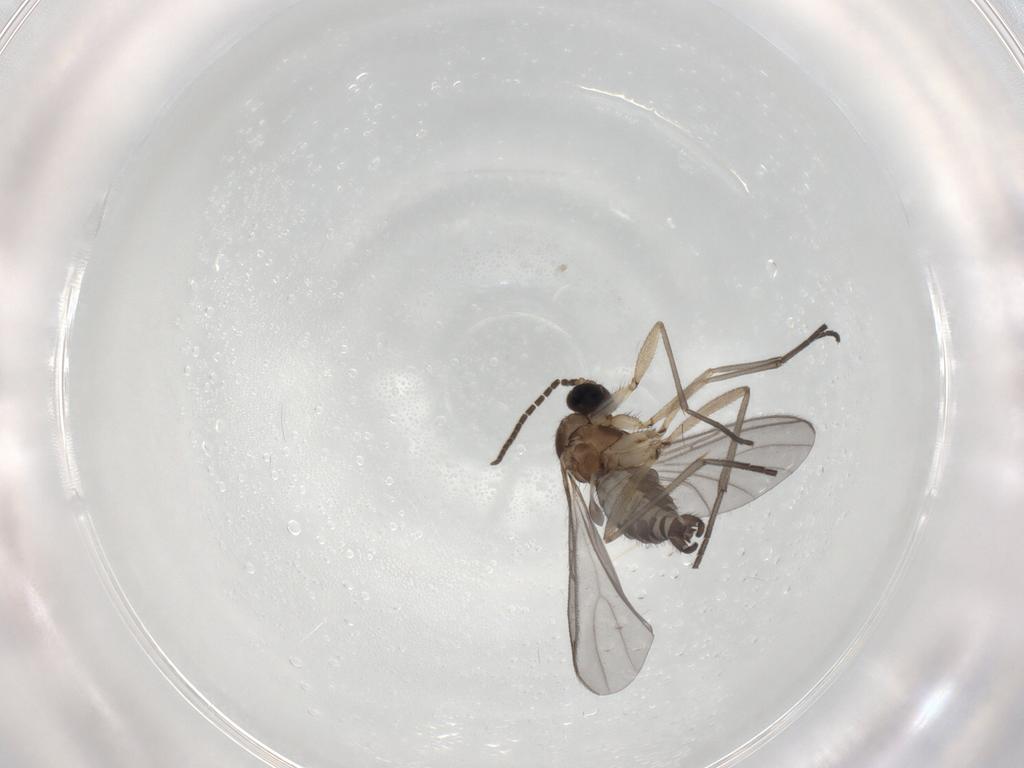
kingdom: Animalia
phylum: Arthropoda
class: Insecta
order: Diptera
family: Sciaridae
